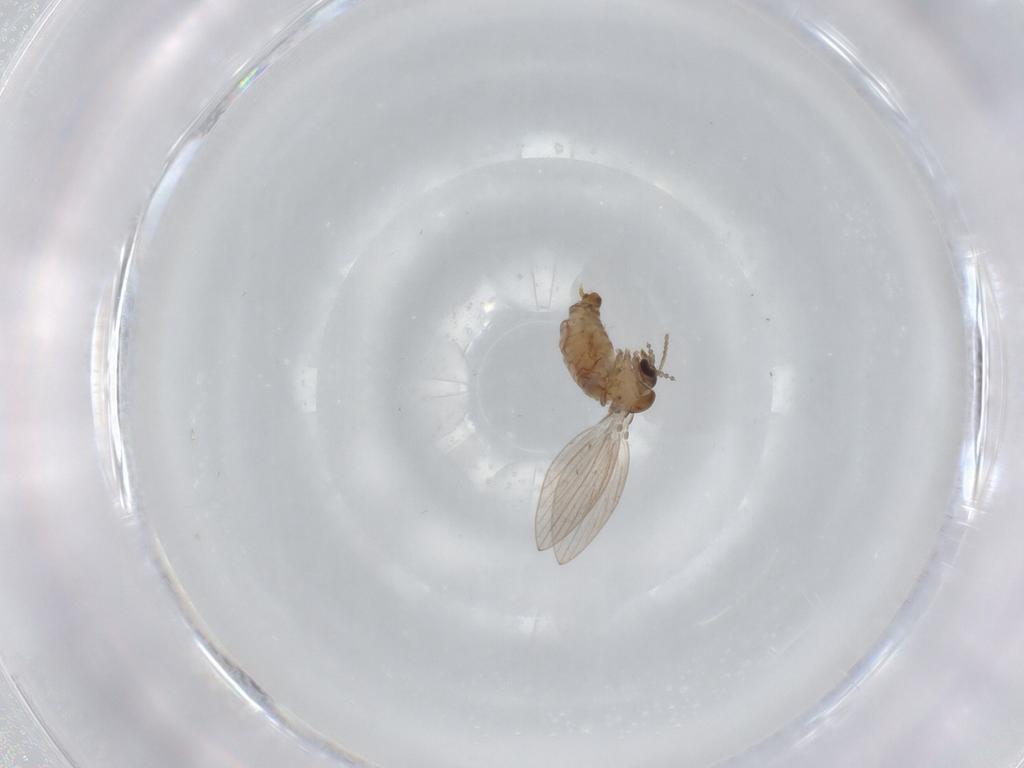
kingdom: Animalia
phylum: Arthropoda
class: Insecta
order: Diptera
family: Psychodidae
